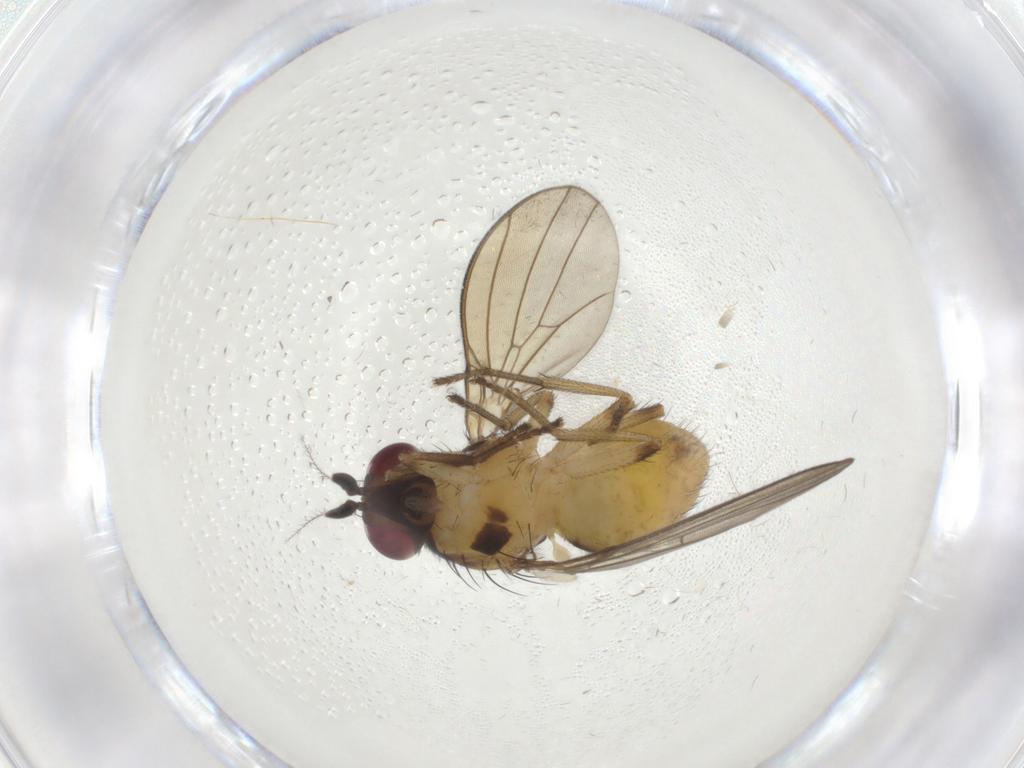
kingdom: Animalia
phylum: Arthropoda
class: Insecta
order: Diptera
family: Lauxaniidae
